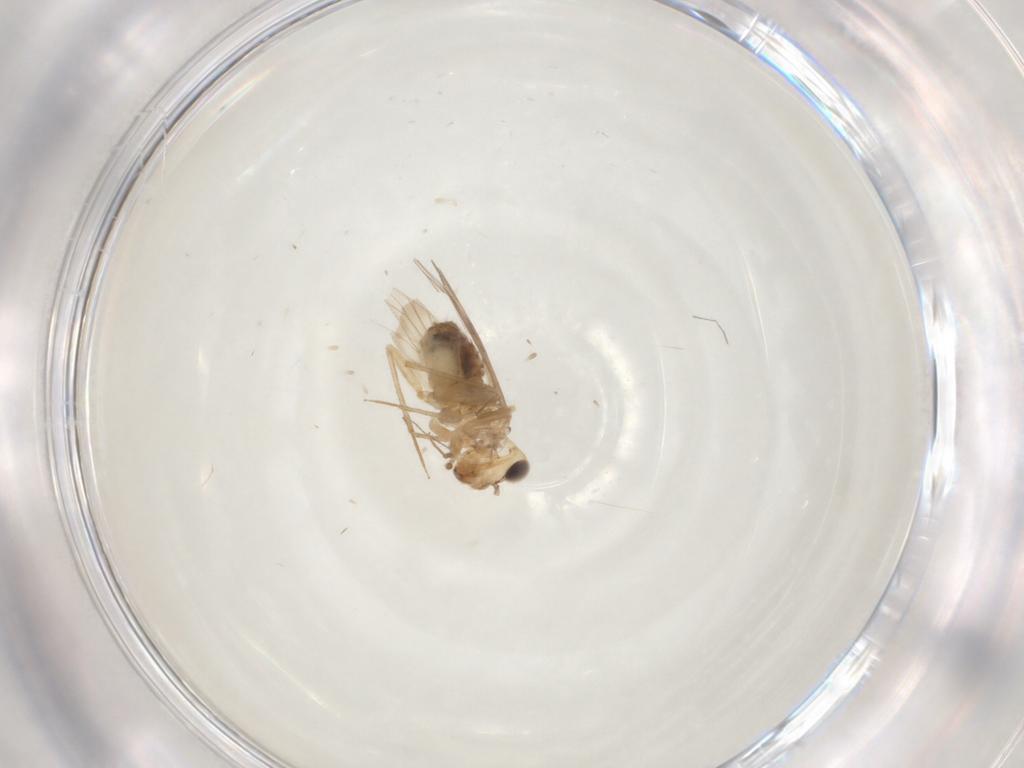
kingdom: Animalia
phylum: Arthropoda
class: Insecta
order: Psocodea
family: Lepidopsocidae
